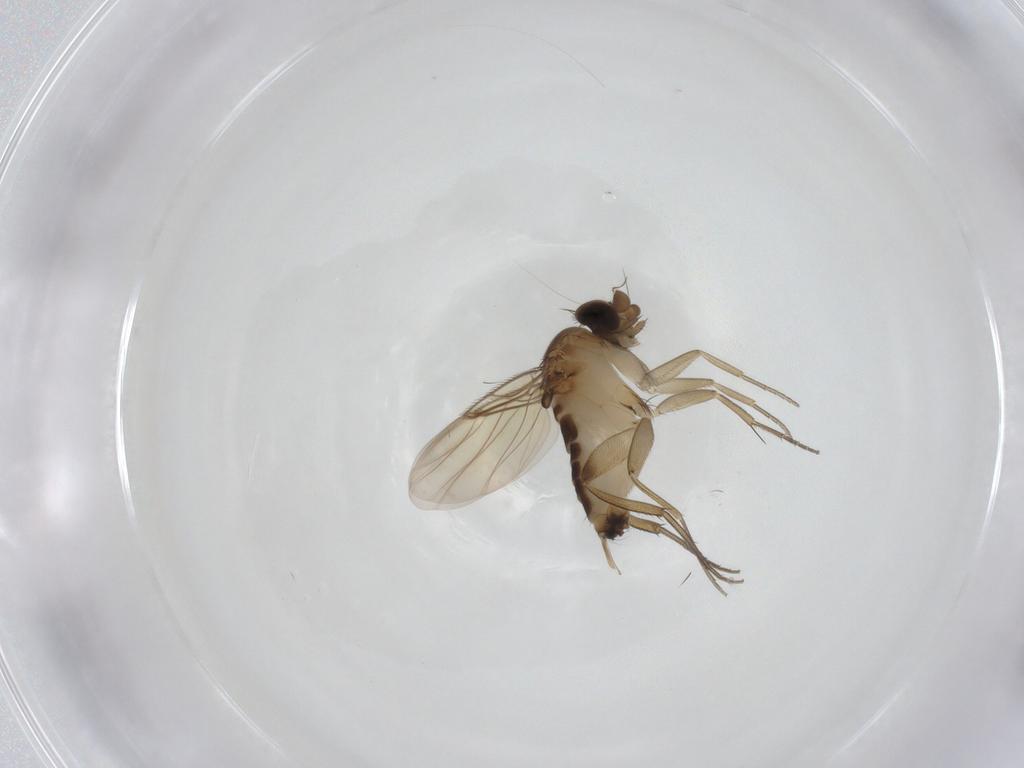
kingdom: Animalia
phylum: Arthropoda
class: Insecta
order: Diptera
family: Phoridae
